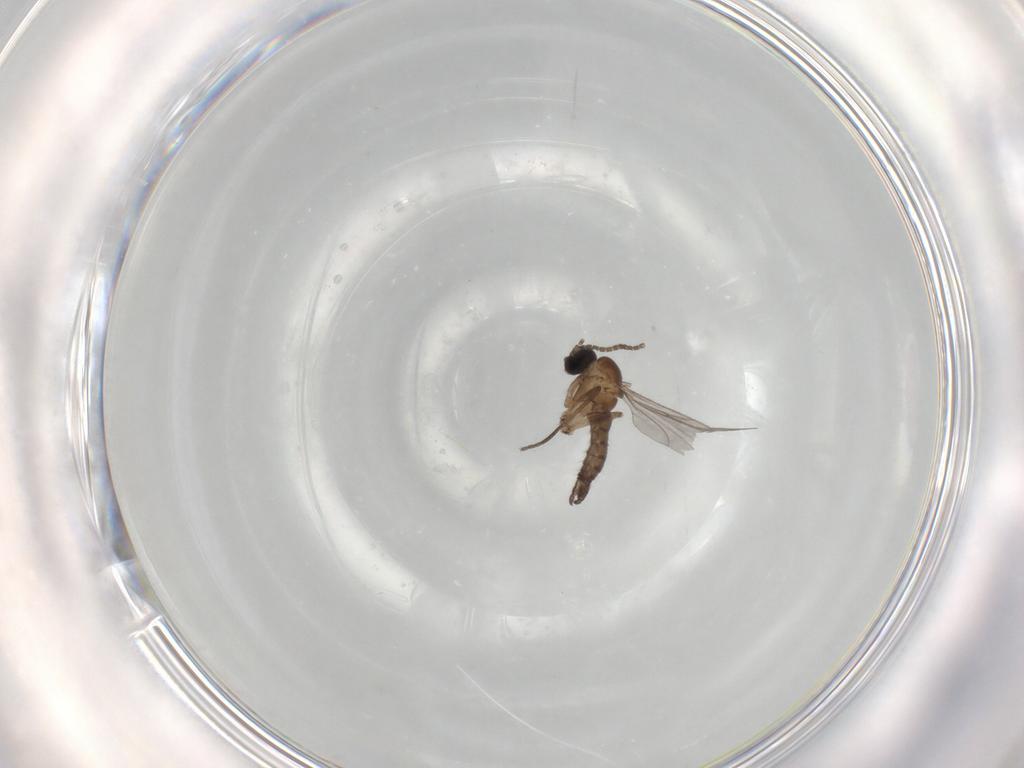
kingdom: Animalia
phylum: Arthropoda
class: Insecta
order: Diptera
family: Sciaridae
